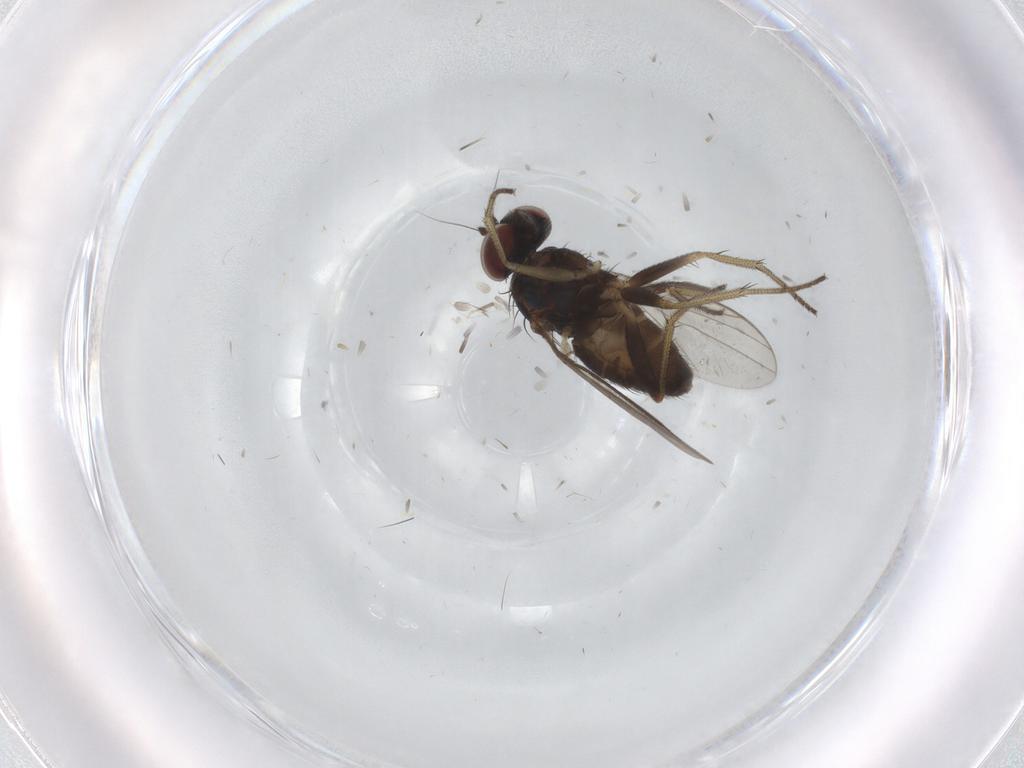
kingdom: Animalia
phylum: Arthropoda
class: Insecta
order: Diptera
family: Cecidomyiidae
